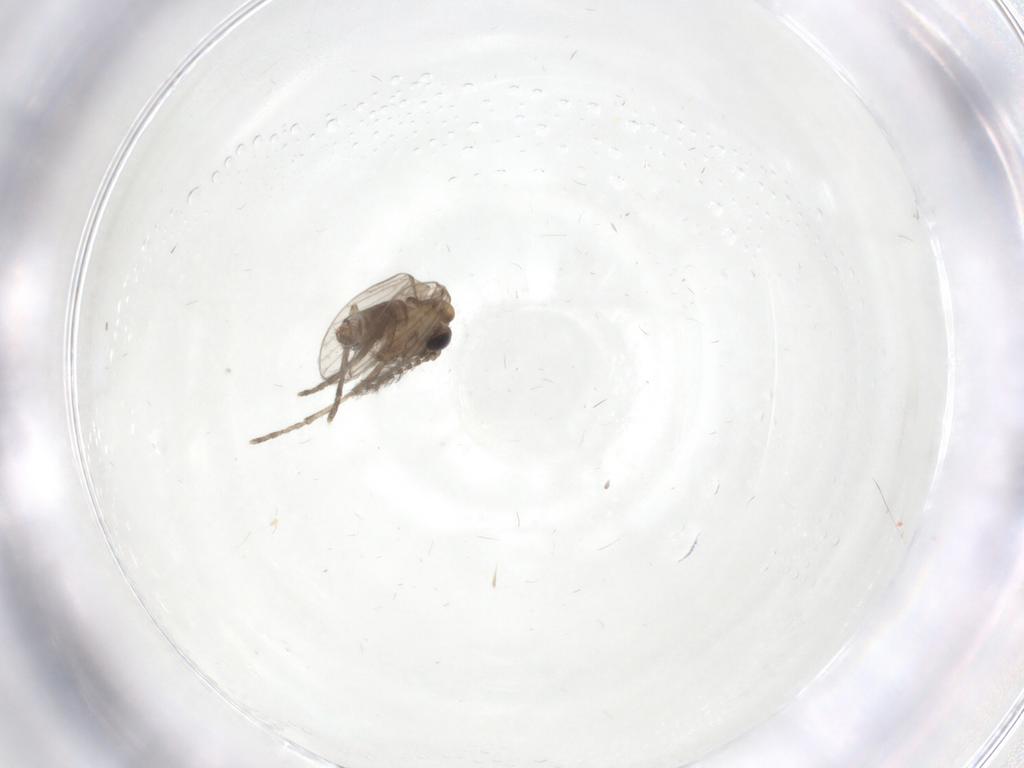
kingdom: Animalia
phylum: Arthropoda
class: Insecta
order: Diptera
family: Cecidomyiidae
